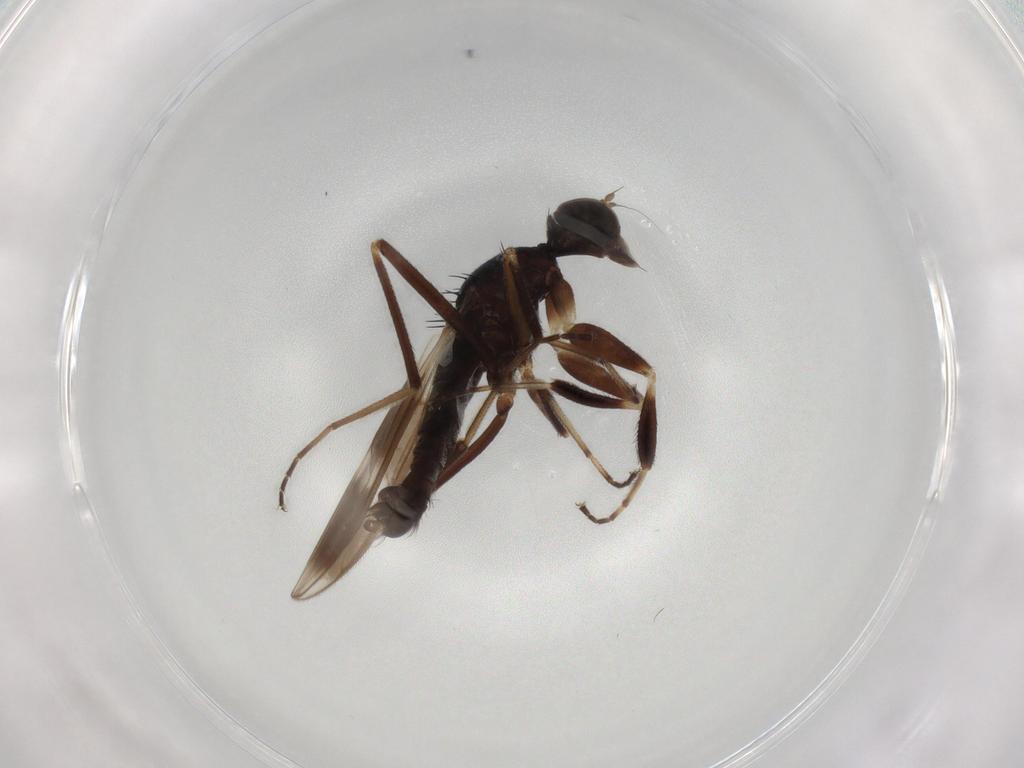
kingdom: Animalia
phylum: Arthropoda
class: Insecta
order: Diptera
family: Hybotidae
